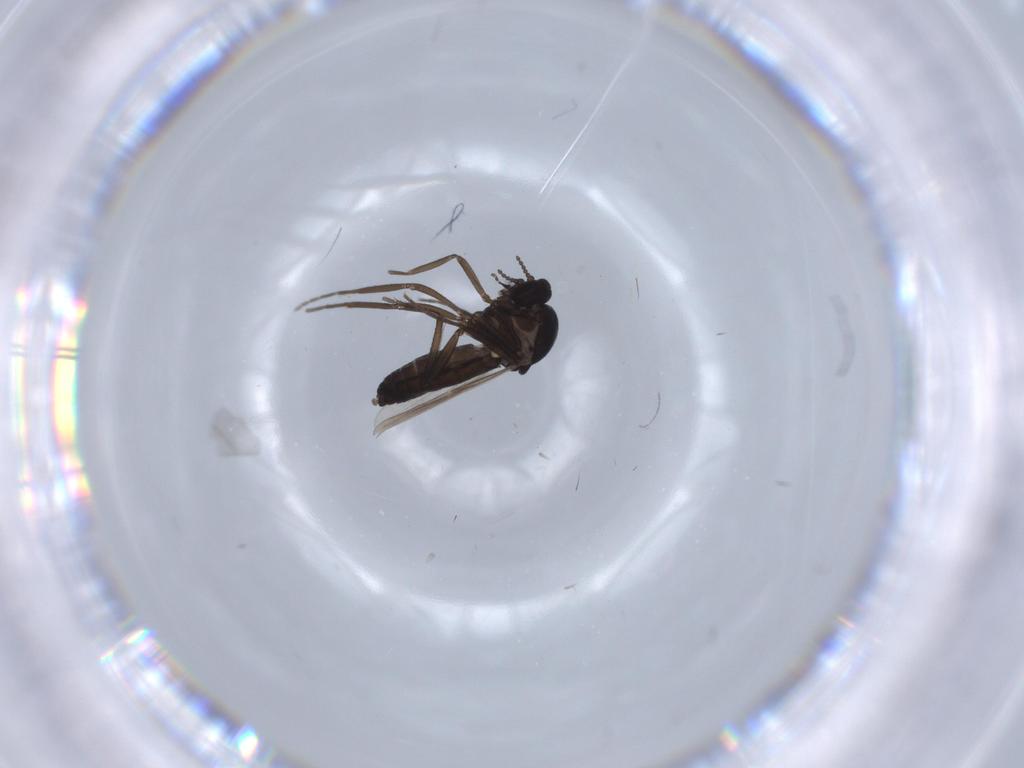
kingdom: Animalia
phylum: Arthropoda
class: Insecta
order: Diptera
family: Ceratopogonidae
